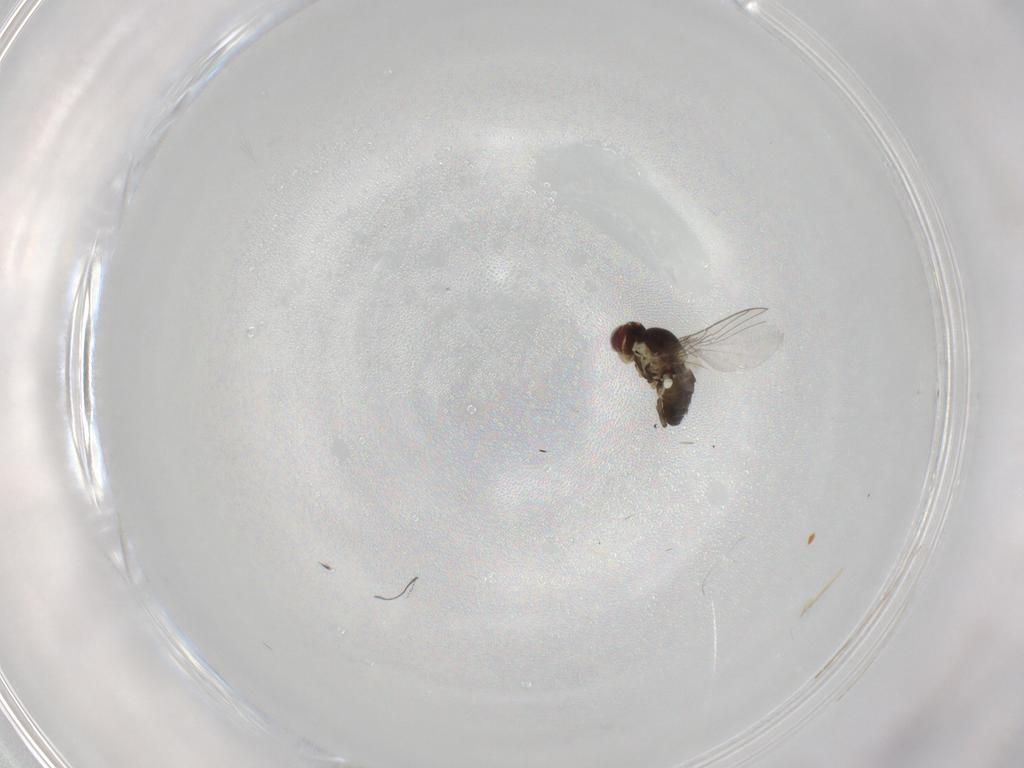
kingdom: Animalia
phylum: Arthropoda
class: Insecta
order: Diptera
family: Agromyzidae
